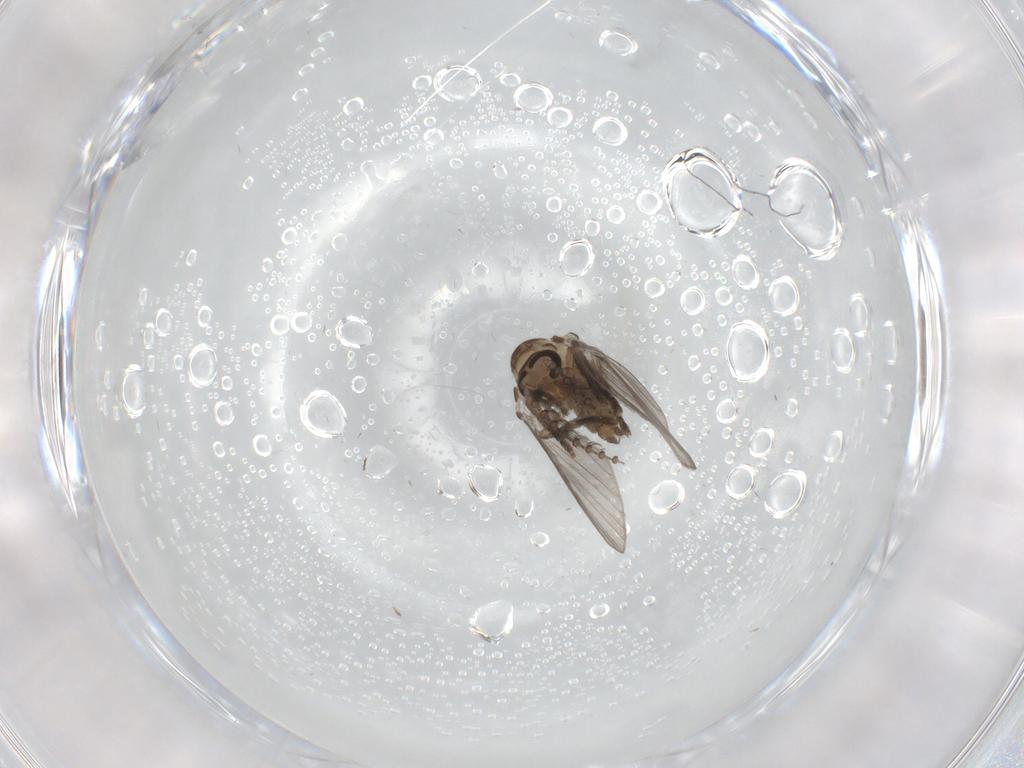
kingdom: Animalia
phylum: Arthropoda
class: Insecta
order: Diptera
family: Psychodidae
